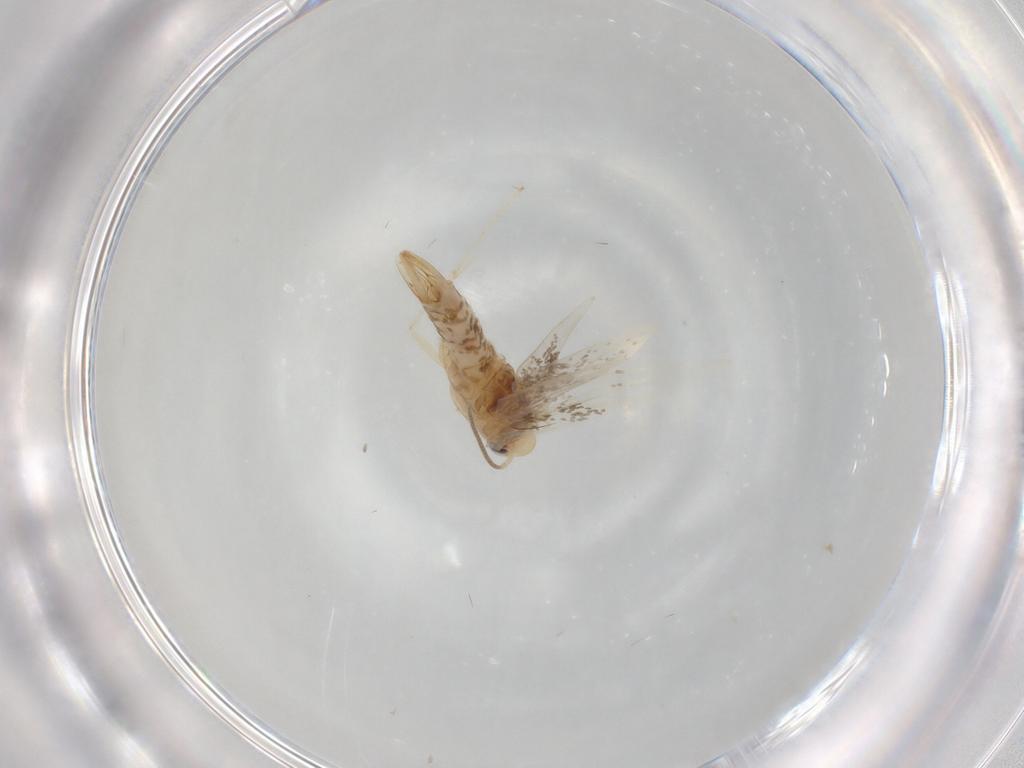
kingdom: Animalia
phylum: Arthropoda
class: Insecta
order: Lepidoptera
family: Gracillariidae
